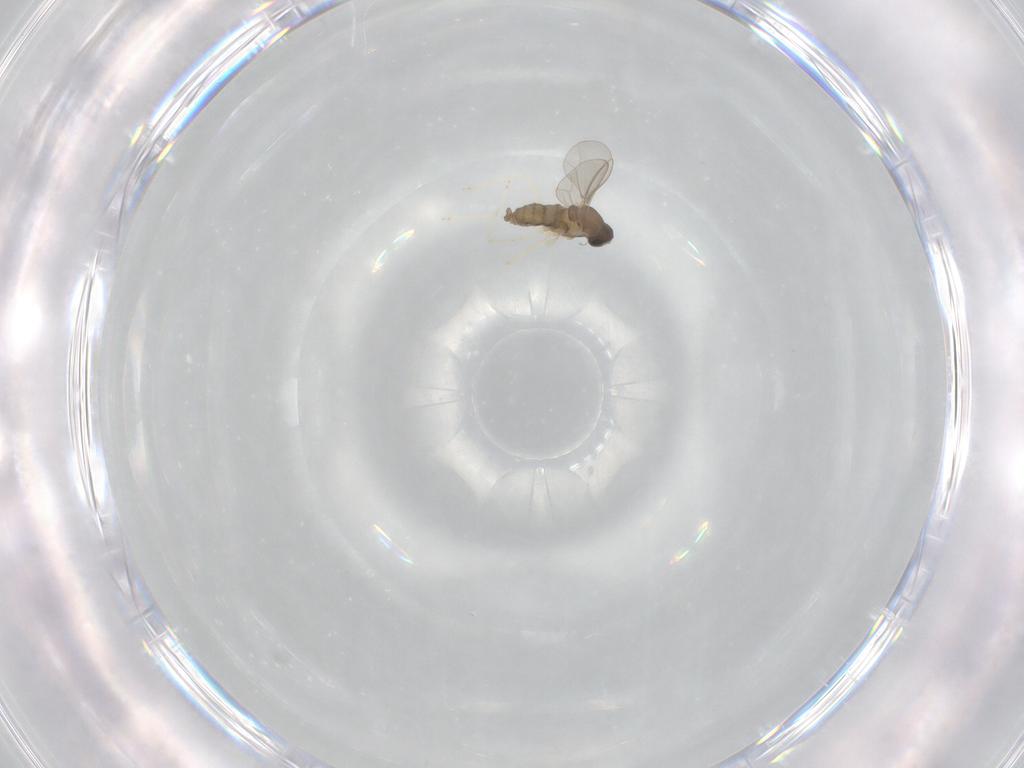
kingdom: Animalia
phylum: Arthropoda
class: Insecta
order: Diptera
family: Cecidomyiidae
